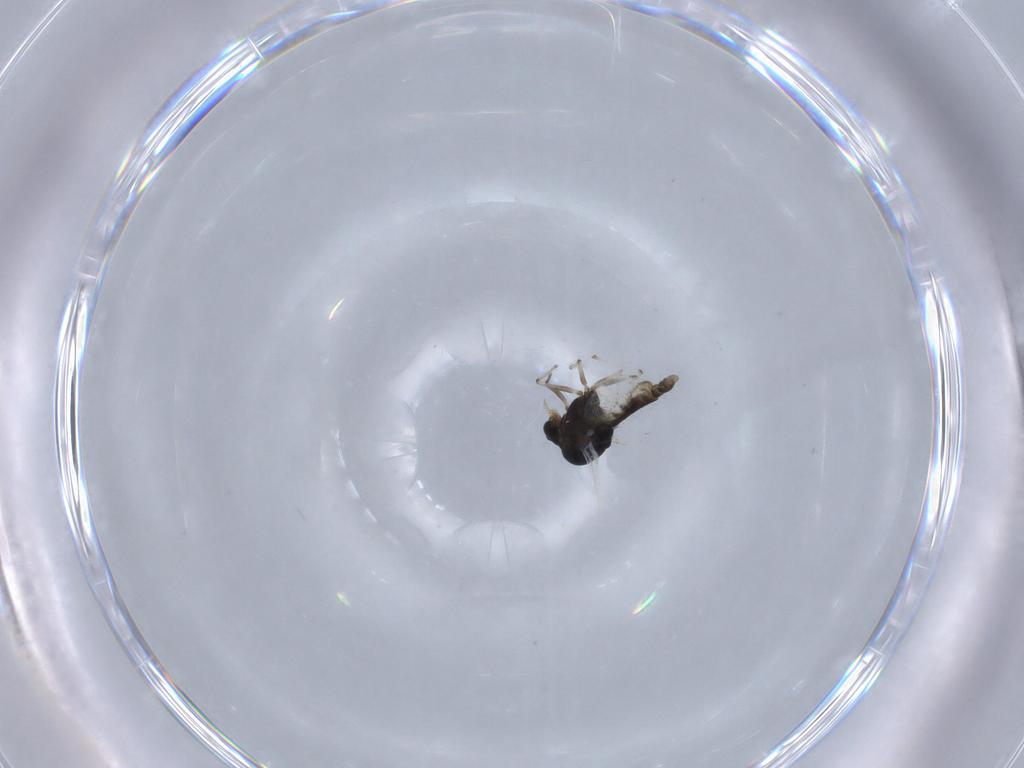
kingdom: Animalia
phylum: Arthropoda
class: Insecta
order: Diptera
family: Chironomidae
